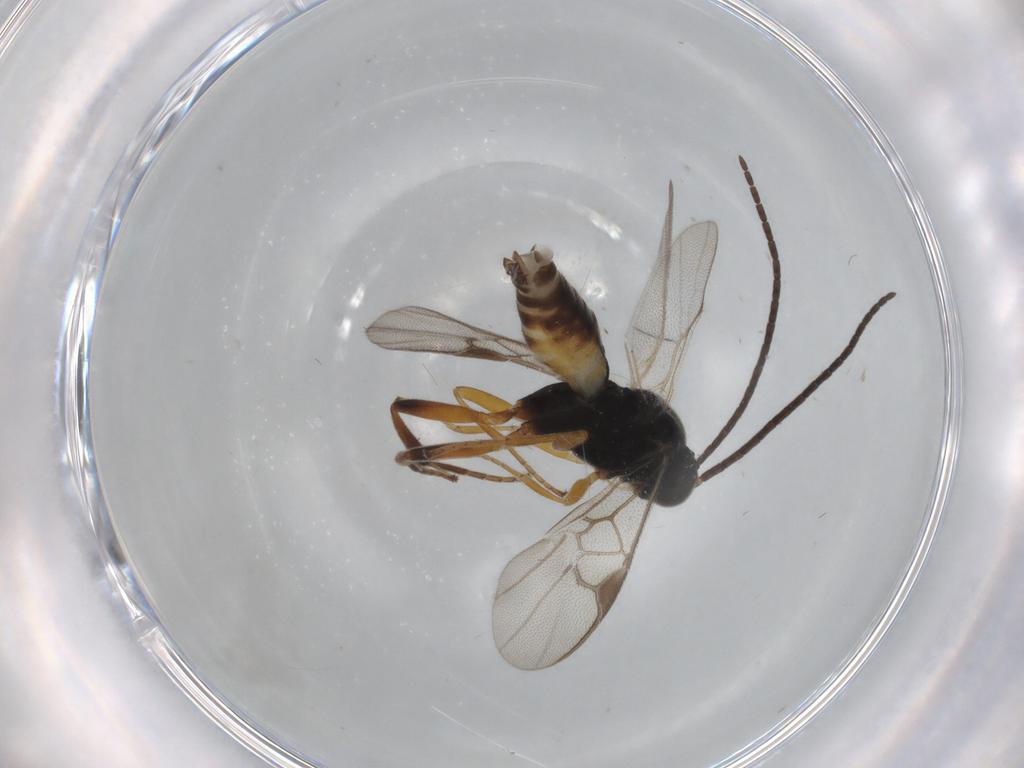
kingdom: Animalia
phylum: Arthropoda
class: Insecta
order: Hymenoptera
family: Braconidae
